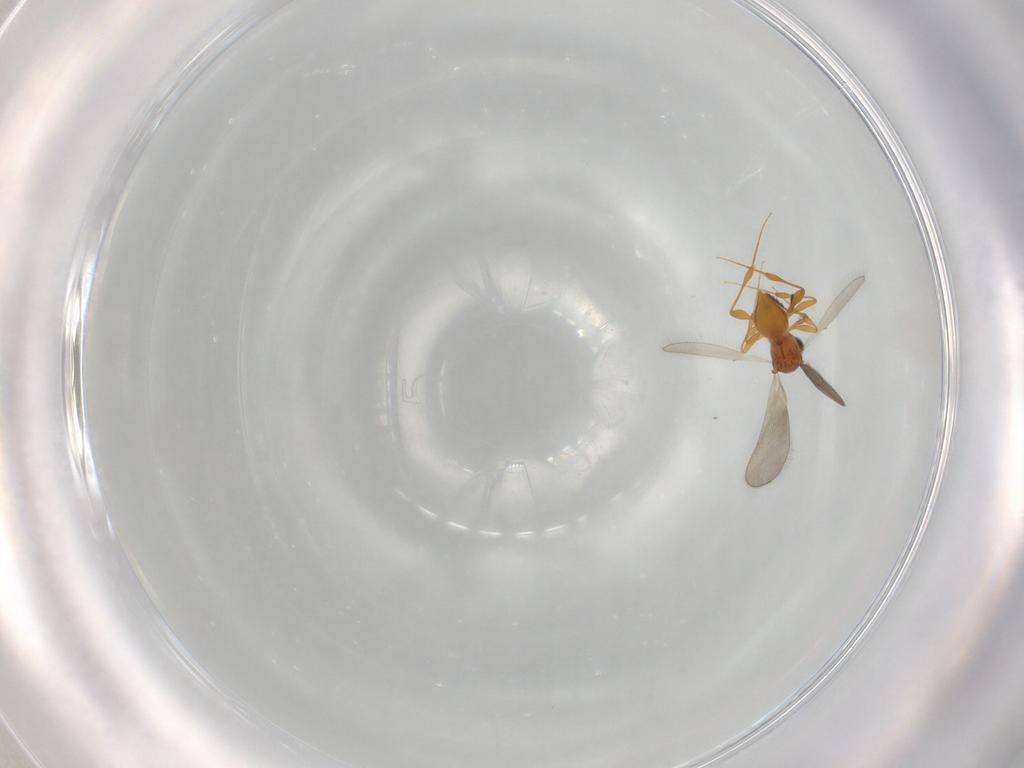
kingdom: Animalia
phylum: Arthropoda
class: Insecta
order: Hymenoptera
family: Platygastridae
